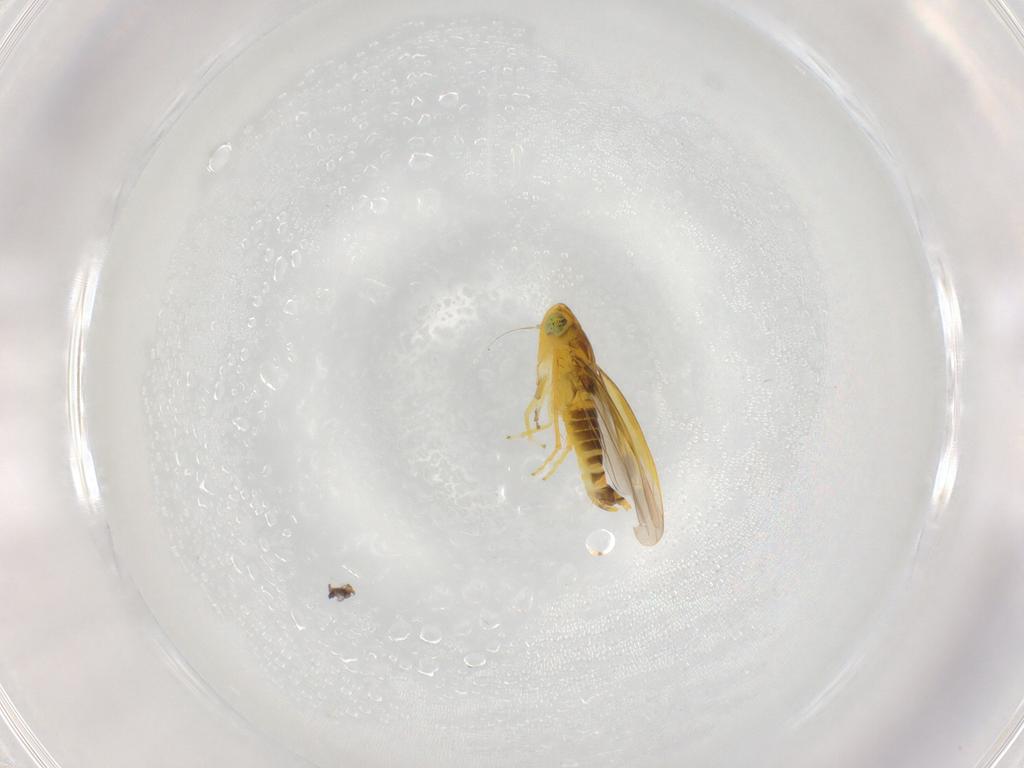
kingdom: Animalia
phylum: Arthropoda
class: Insecta
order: Hemiptera
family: Cicadellidae
